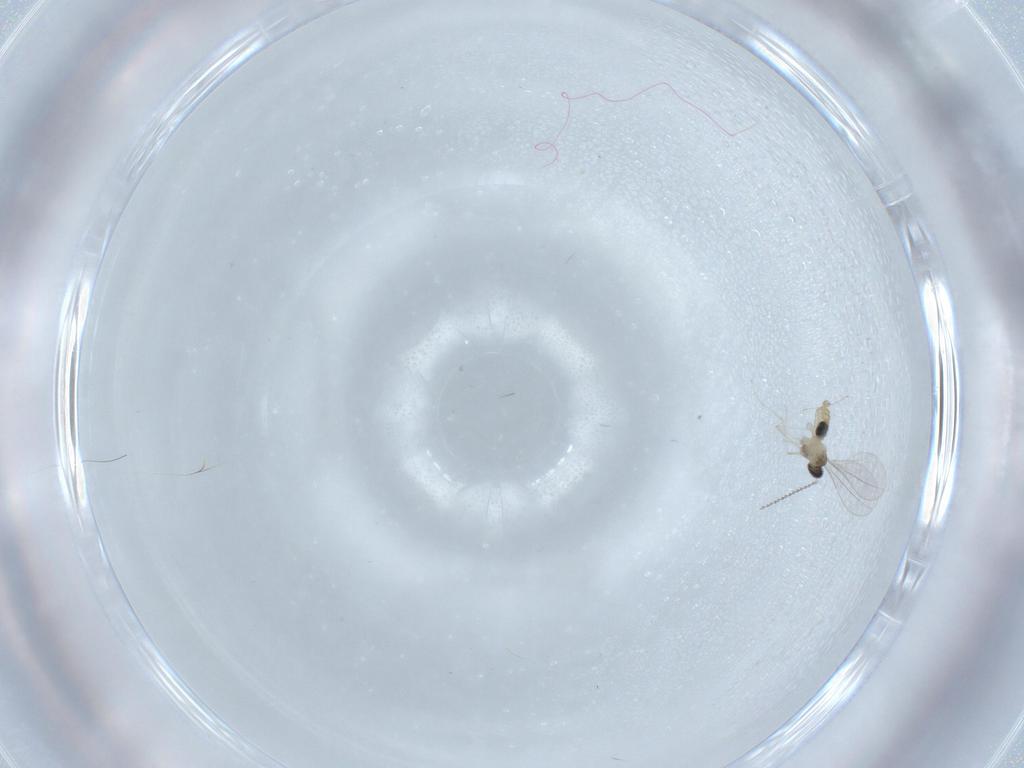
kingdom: Animalia
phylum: Arthropoda
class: Insecta
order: Diptera
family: Cecidomyiidae
